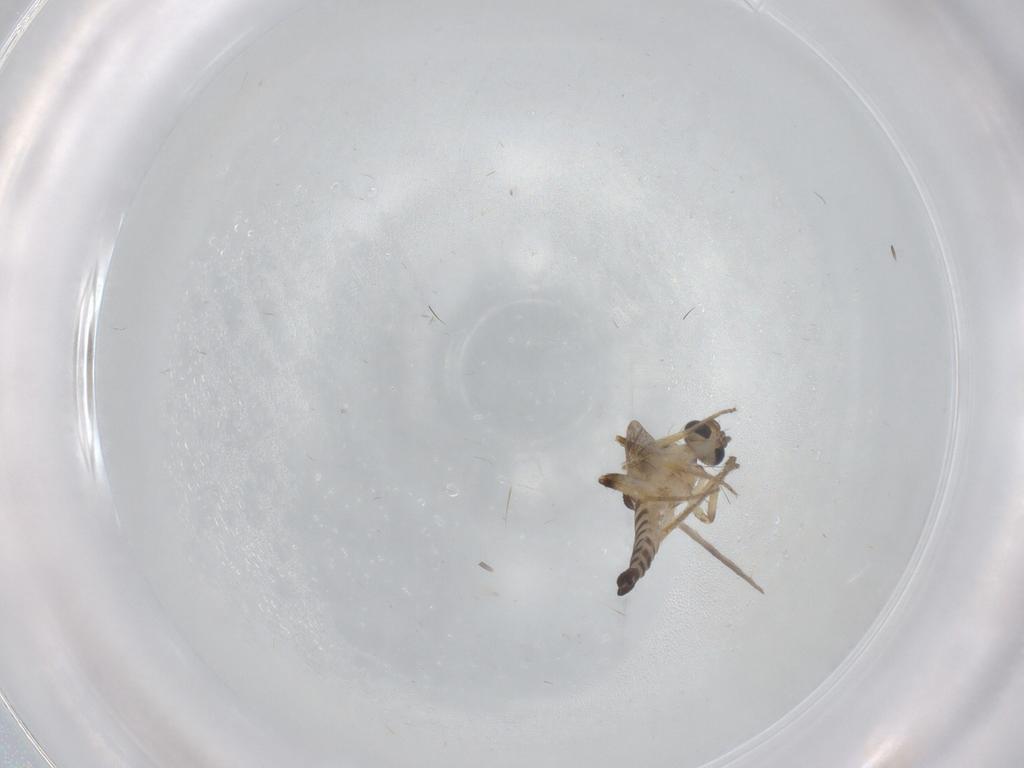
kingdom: Animalia
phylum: Arthropoda
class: Insecta
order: Diptera
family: Ceratopogonidae
